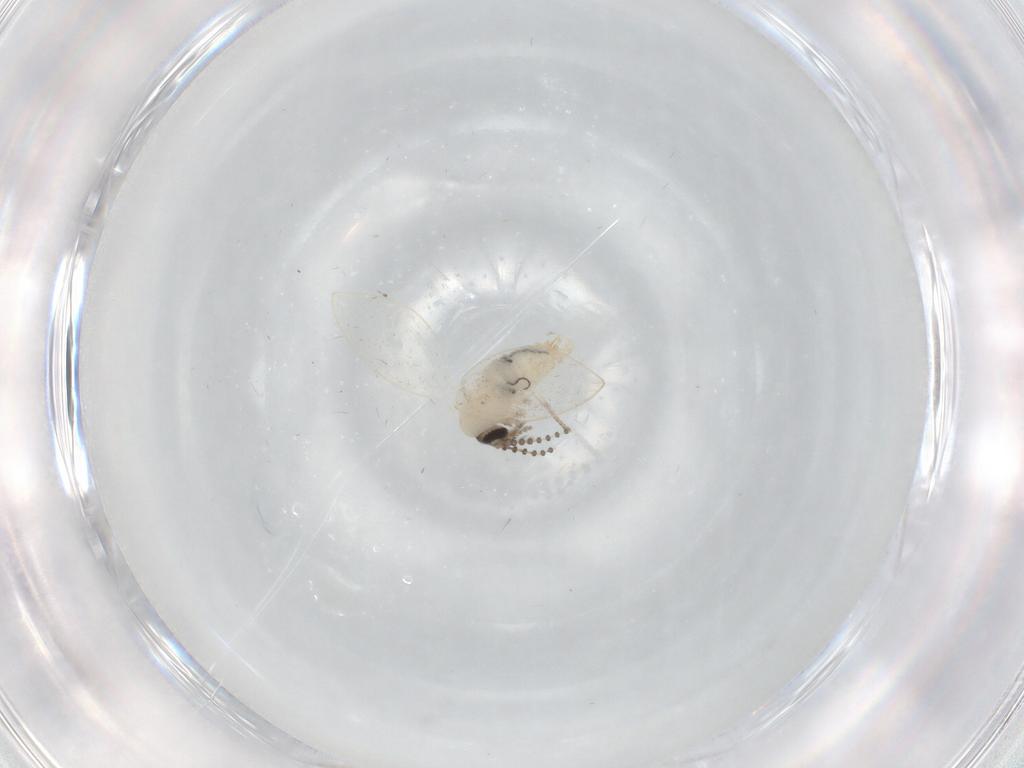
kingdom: Animalia
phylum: Arthropoda
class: Insecta
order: Diptera
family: Psychodidae
